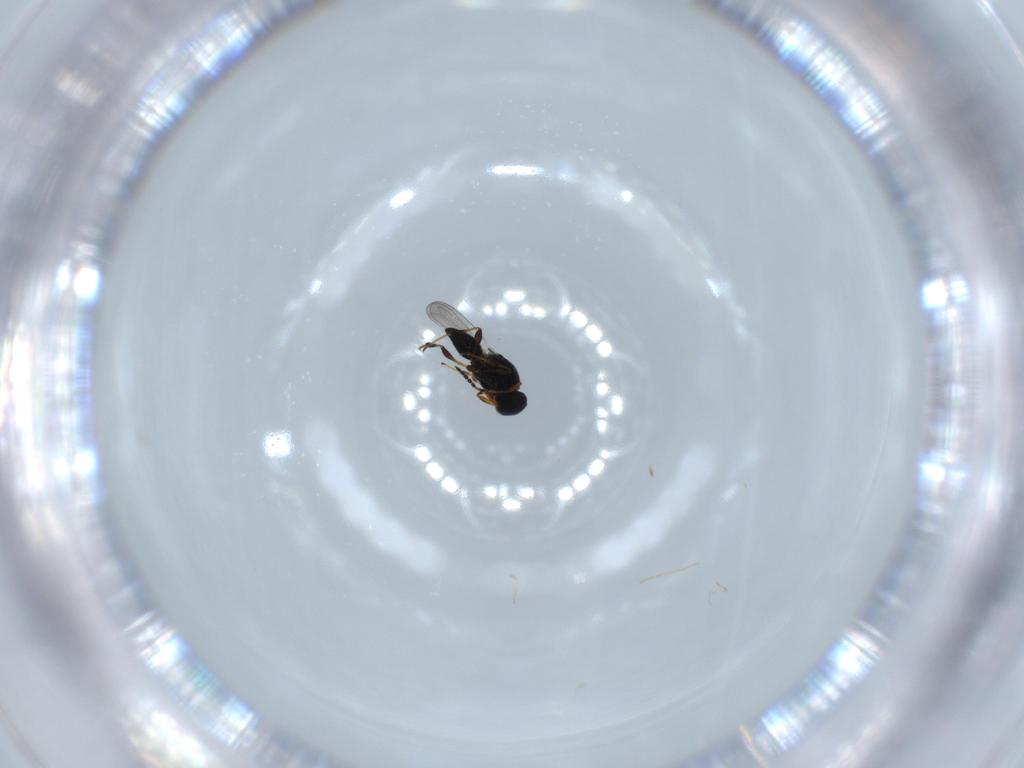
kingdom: Animalia
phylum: Arthropoda
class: Insecta
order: Hymenoptera
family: Platygastridae
